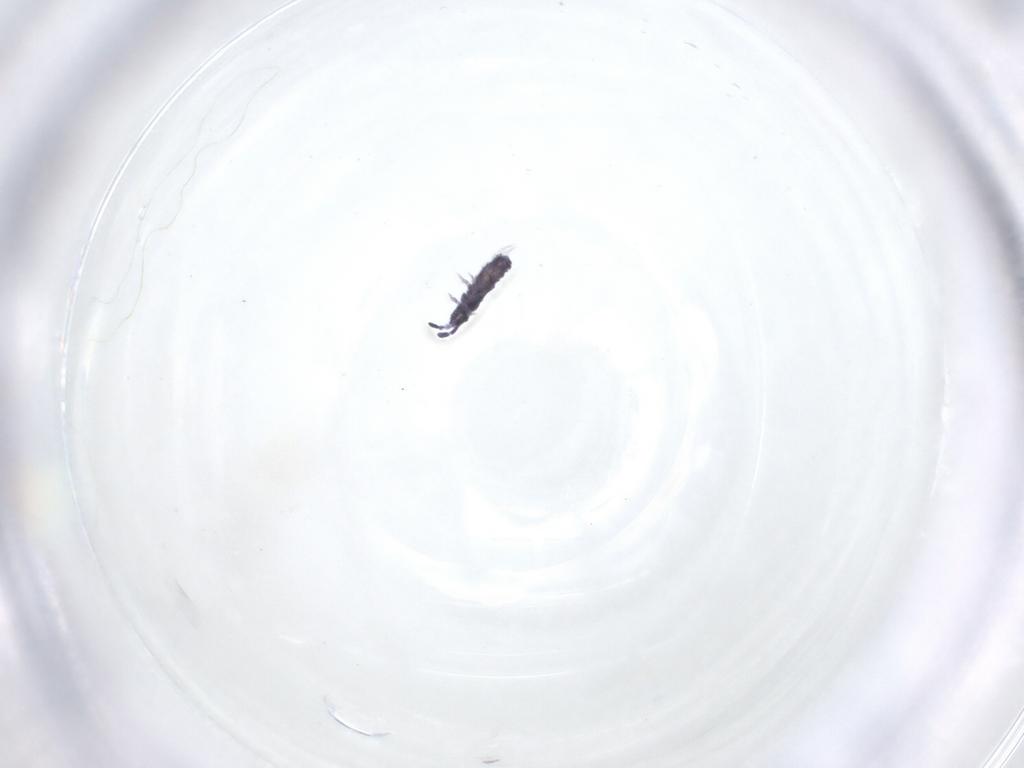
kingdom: Animalia
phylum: Arthropoda
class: Collembola
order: Poduromorpha
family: Neanuridae
